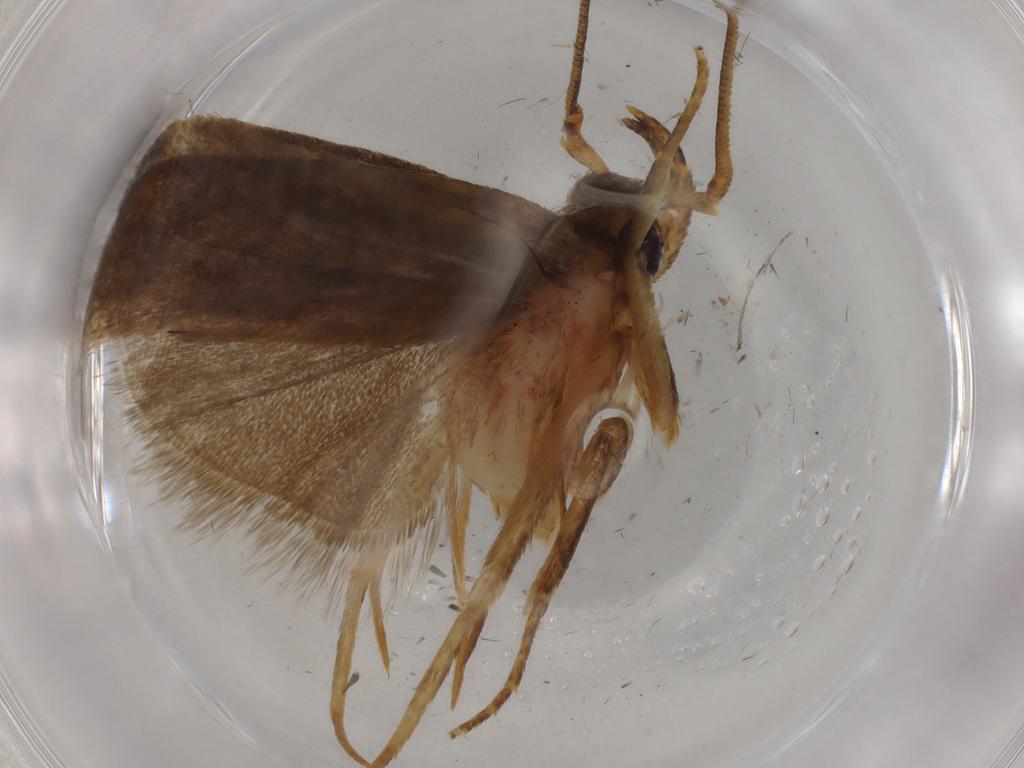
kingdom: Animalia
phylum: Arthropoda
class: Insecta
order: Lepidoptera
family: Autostichidae
